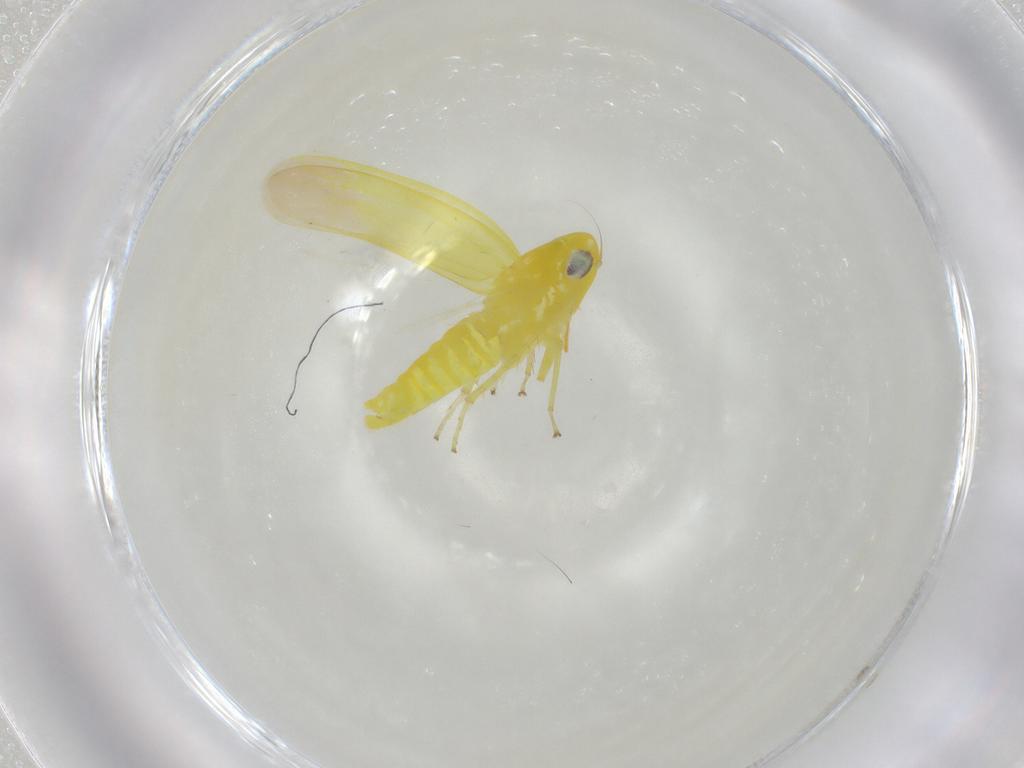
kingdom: Animalia
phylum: Arthropoda
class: Insecta
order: Hemiptera
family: Cicadellidae
